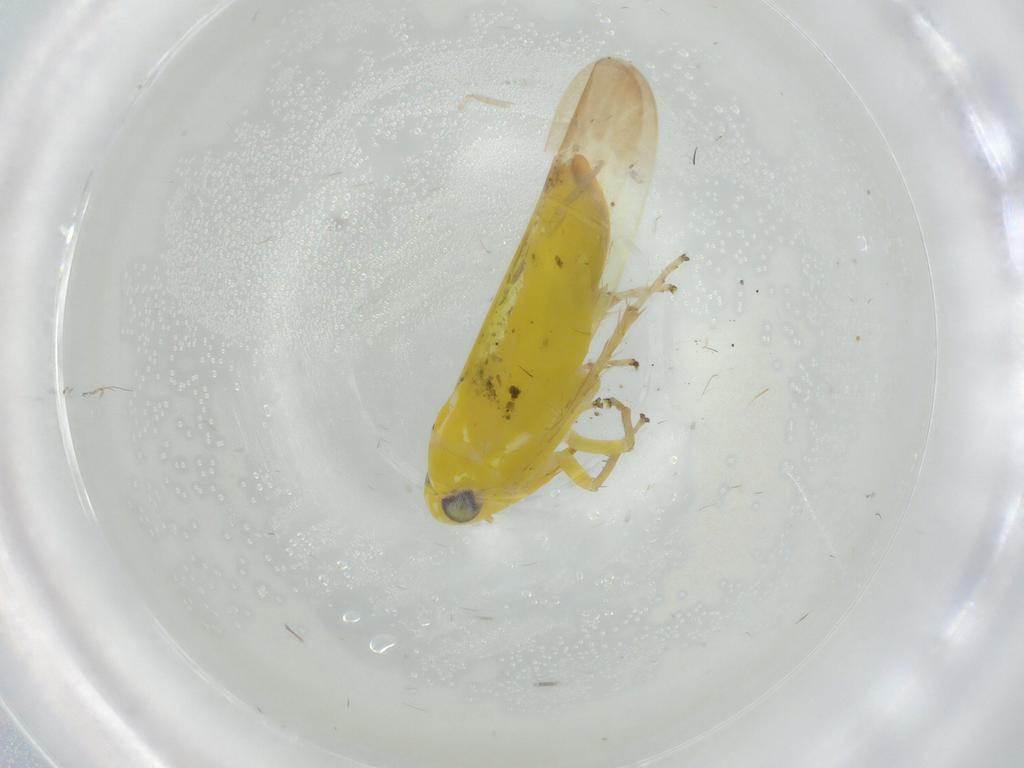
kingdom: Animalia
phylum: Arthropoda
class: Insecta
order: Hemiptera
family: Cicadellidae
